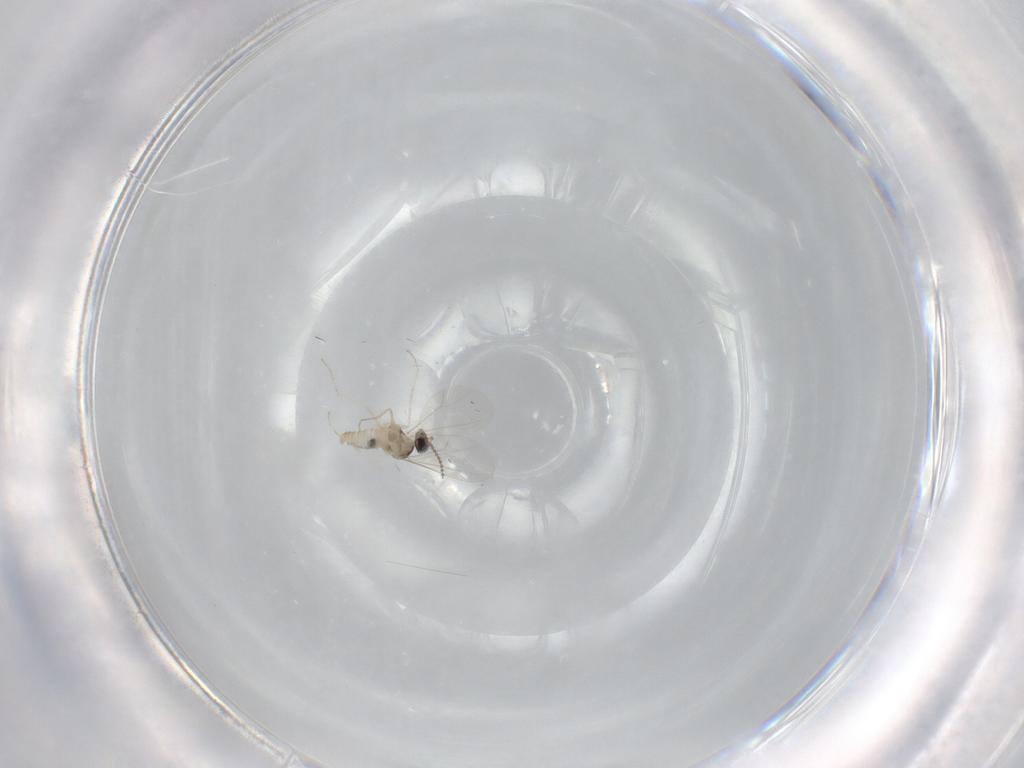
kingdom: Animalia
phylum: Arthropoda
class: Insecta
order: Diptera
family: Cecidomyiidae
